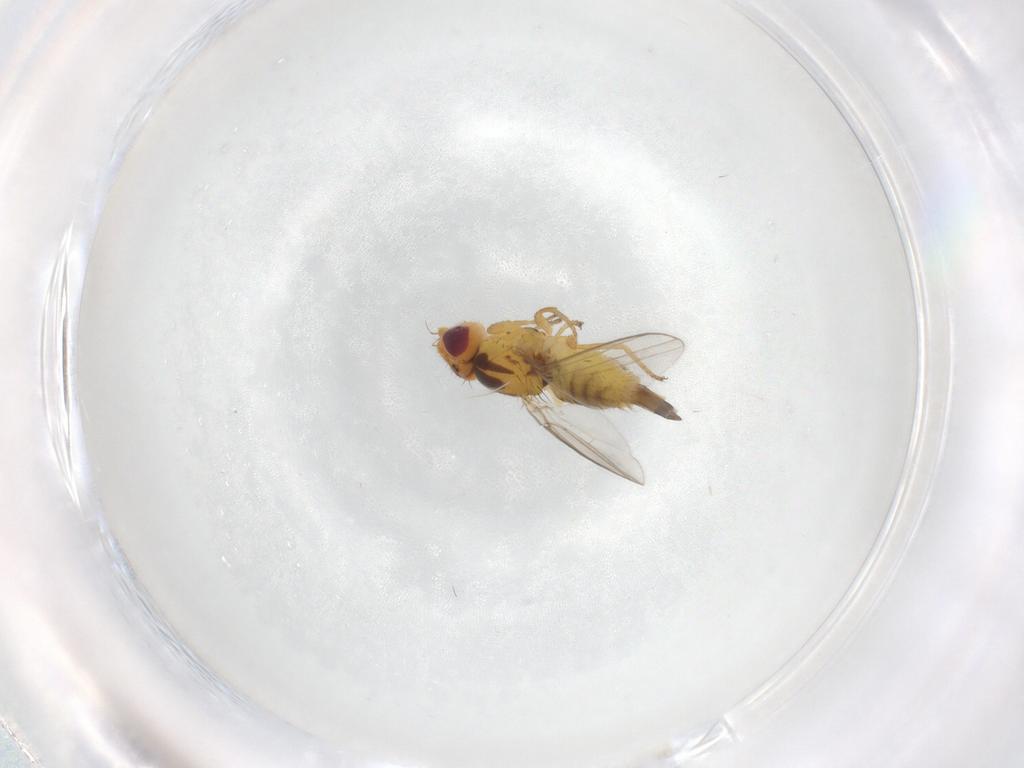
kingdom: Animalia
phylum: Arthropoda
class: Insecta
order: Diptera
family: Chloropidae
